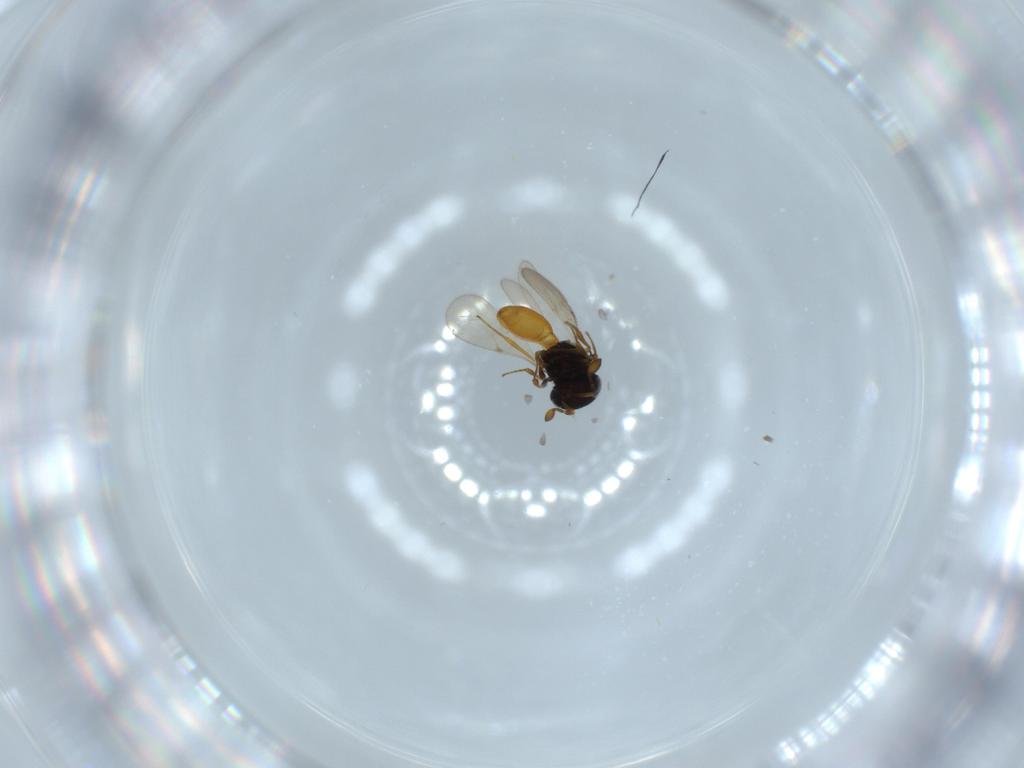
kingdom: Animalia
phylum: Arthropoda
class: Insecta
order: Hymenoptera
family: Scelionidae
